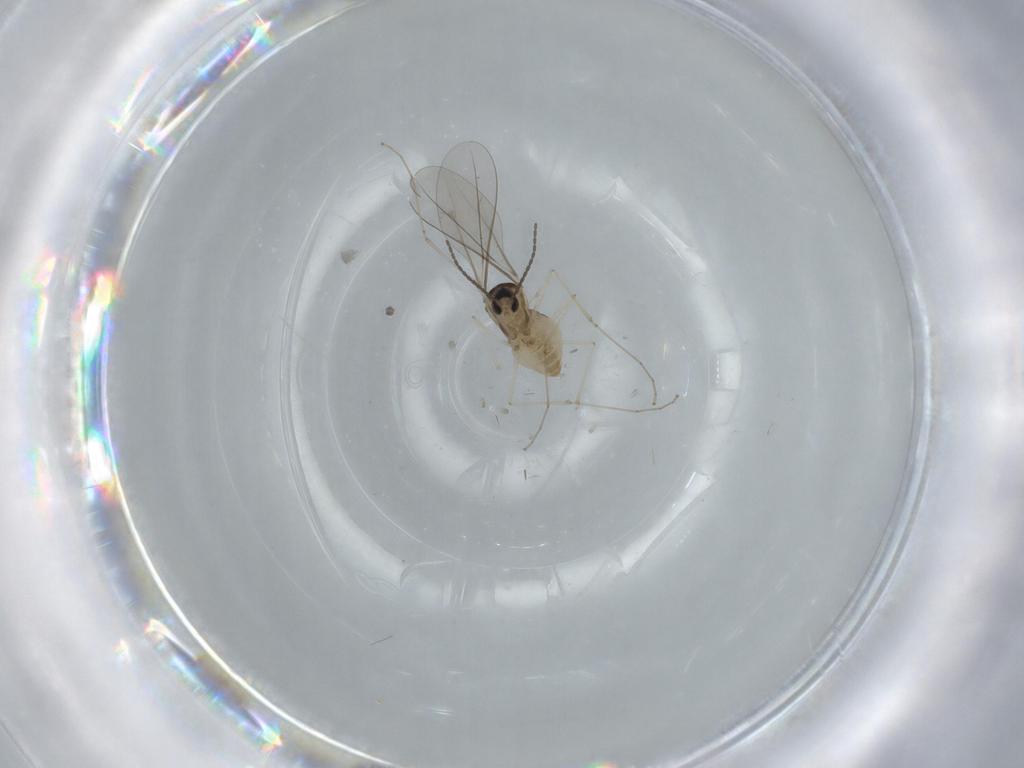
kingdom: Animalia
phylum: Arthropoda
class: Insecta
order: Diptera
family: Cecidomyiidae
